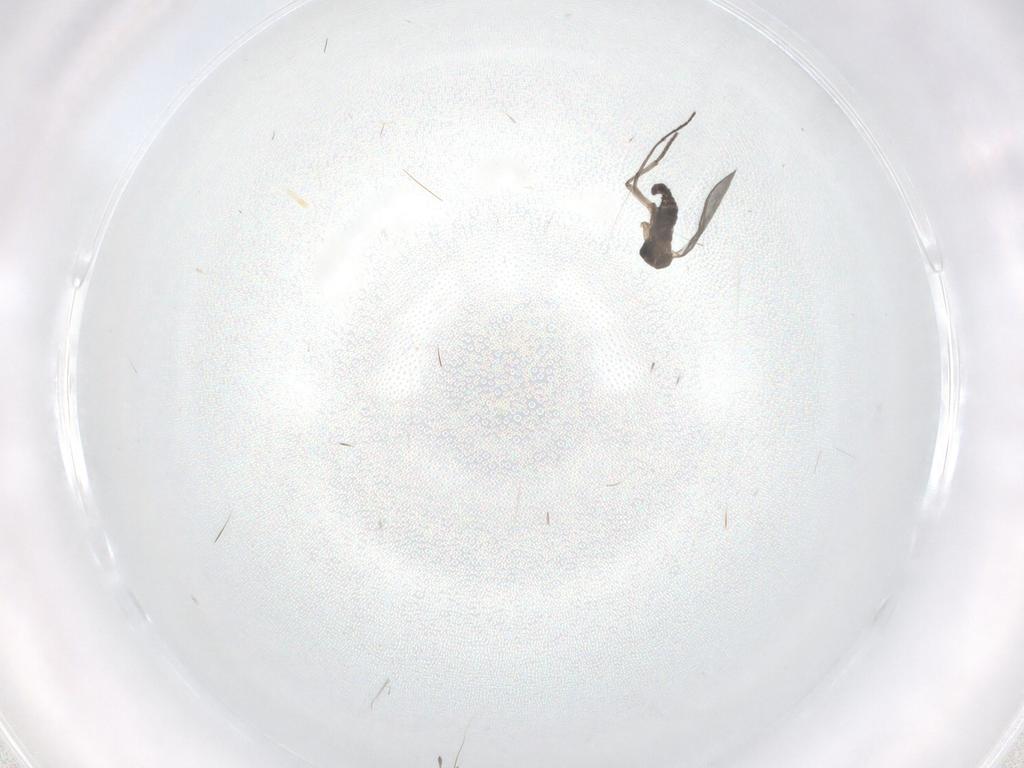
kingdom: Animalia
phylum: Arthropoda
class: Insecta
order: Diptera
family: Sciaridae
